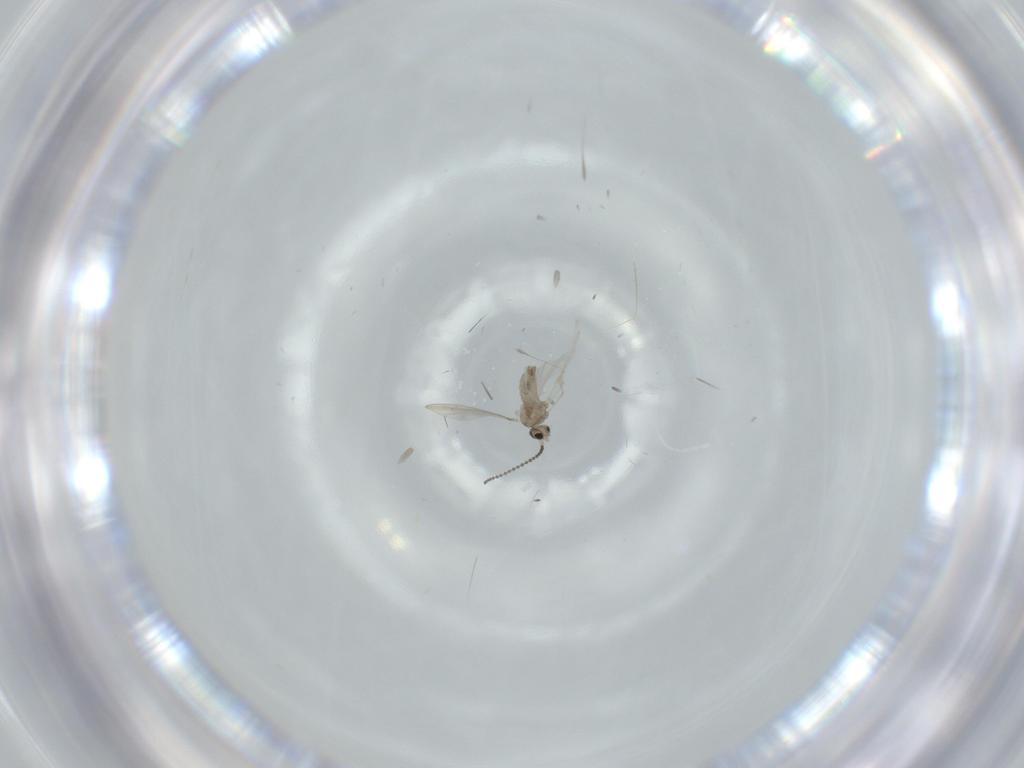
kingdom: Animalia
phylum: Arthropoda
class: Insecta
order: Diptera
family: Cecidomyiidae
